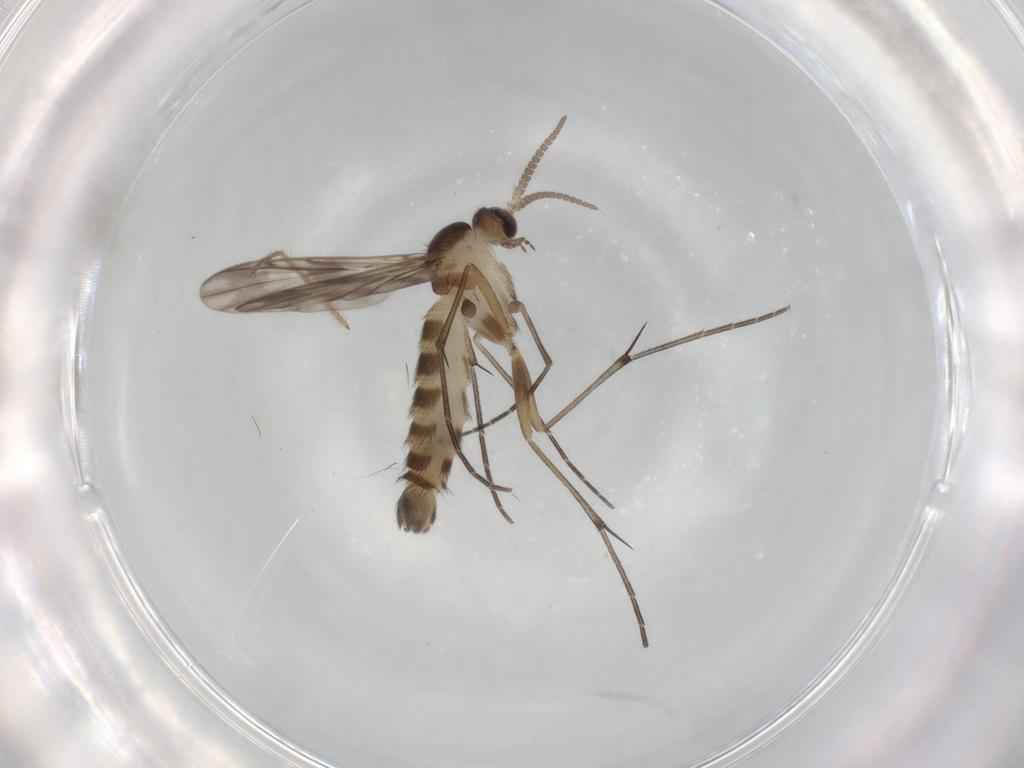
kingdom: Animalia
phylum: Arthropoda
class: Insecta
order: Diptera
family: Keroplatidae
